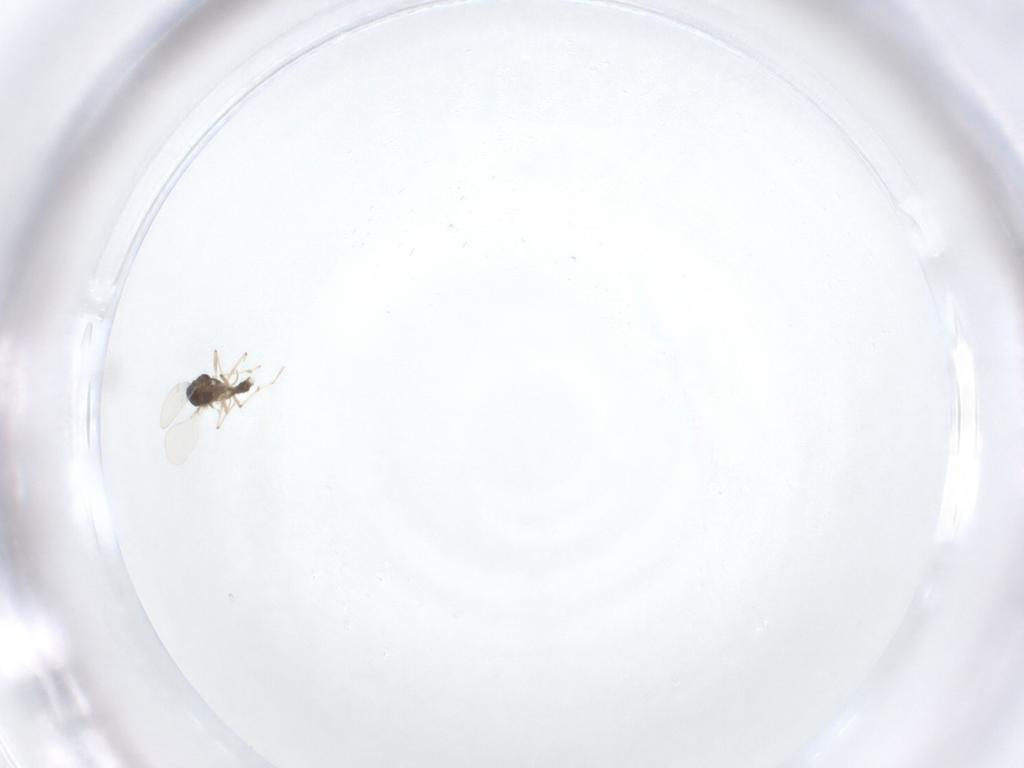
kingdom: Animalia
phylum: Arthropoda
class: Insecta
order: Diptera
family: Chironomidae
